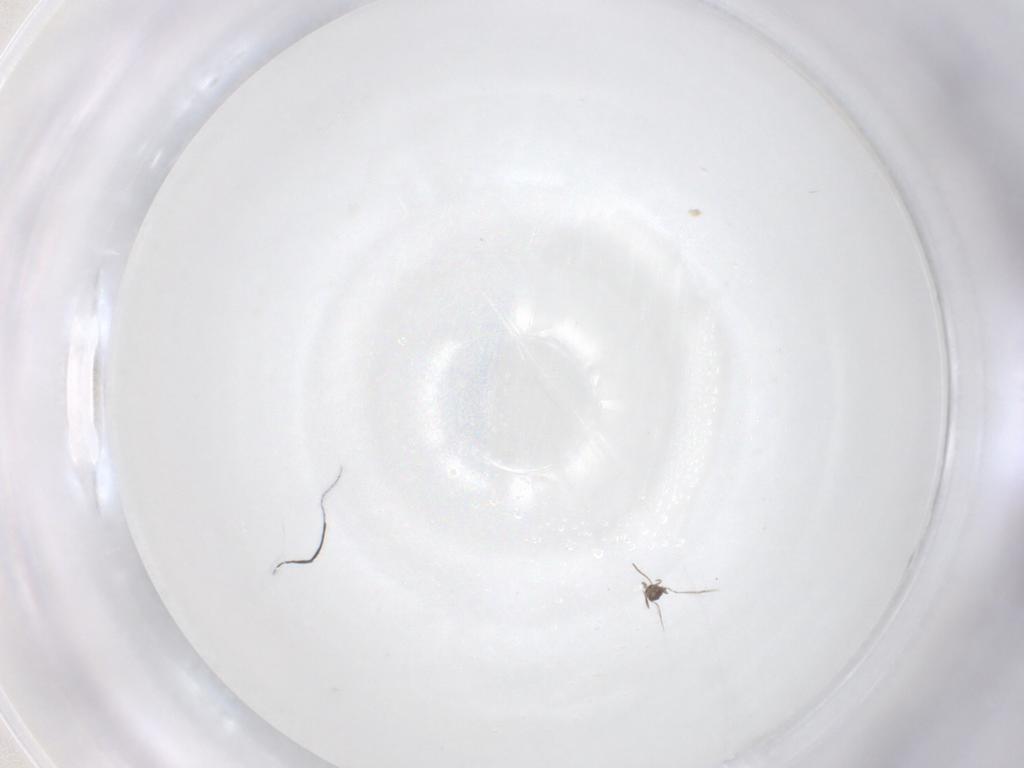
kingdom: Animalia
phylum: Arthropoda
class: Insecta
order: Hymenoptera
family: Mymaridae
